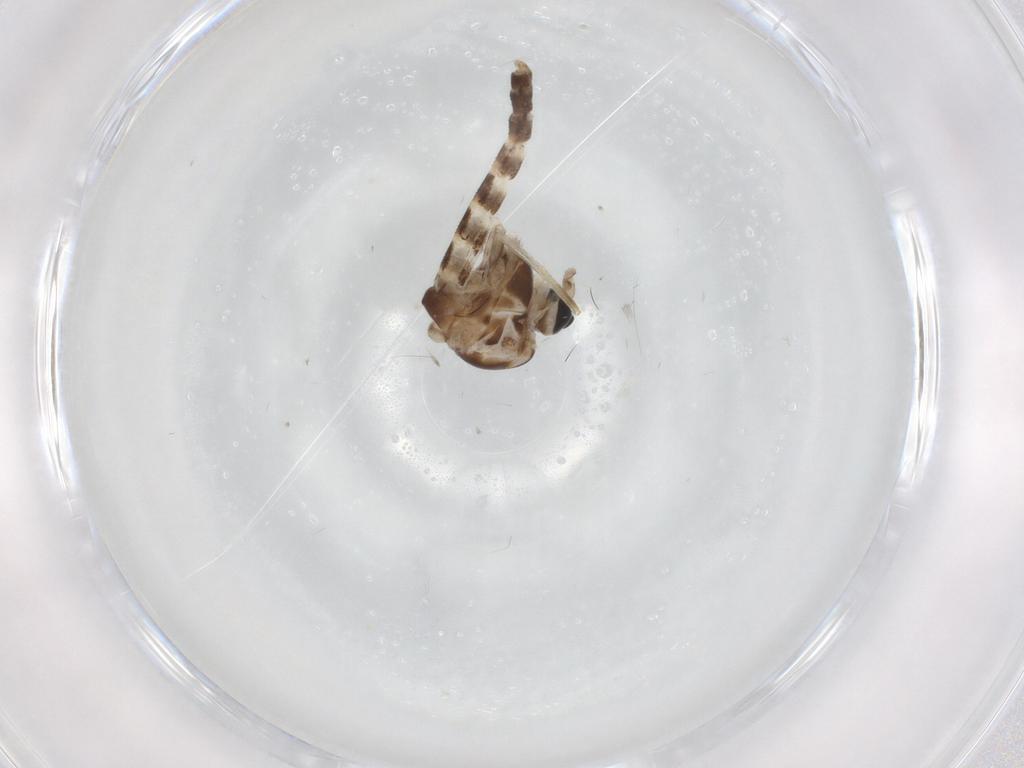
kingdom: Animalia
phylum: Arthropoda
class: Insecta
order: Diptera
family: Chironomidae
